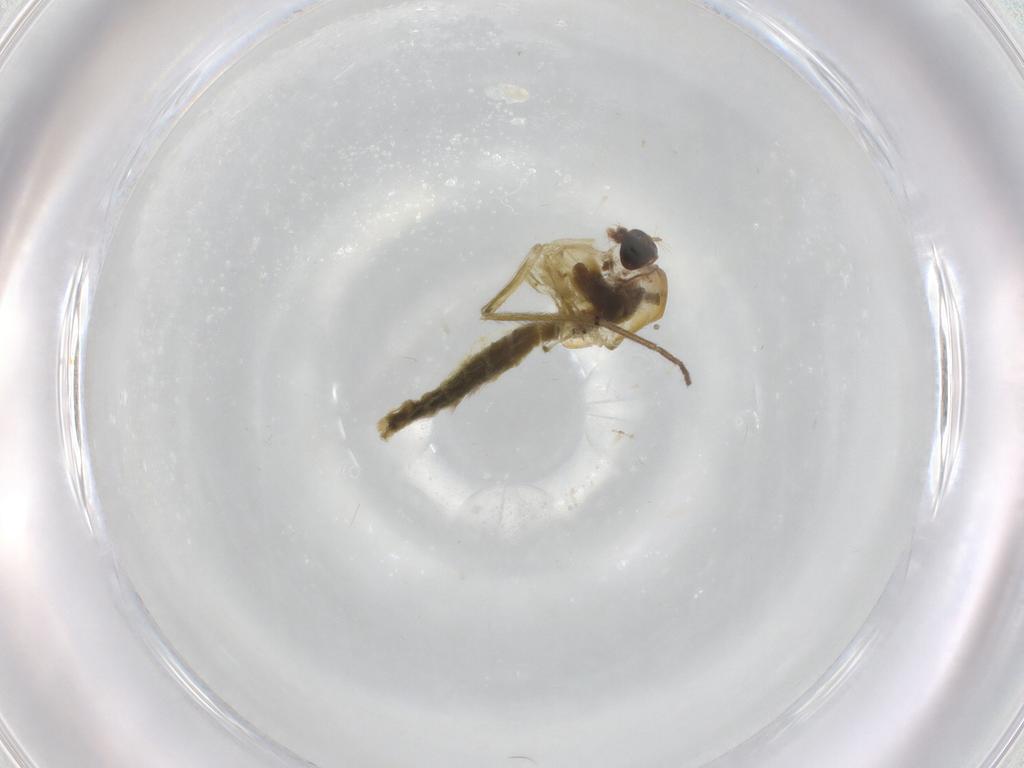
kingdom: Animalia
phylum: Arthropoda
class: Insecta
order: Diptera
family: Chironomidae
